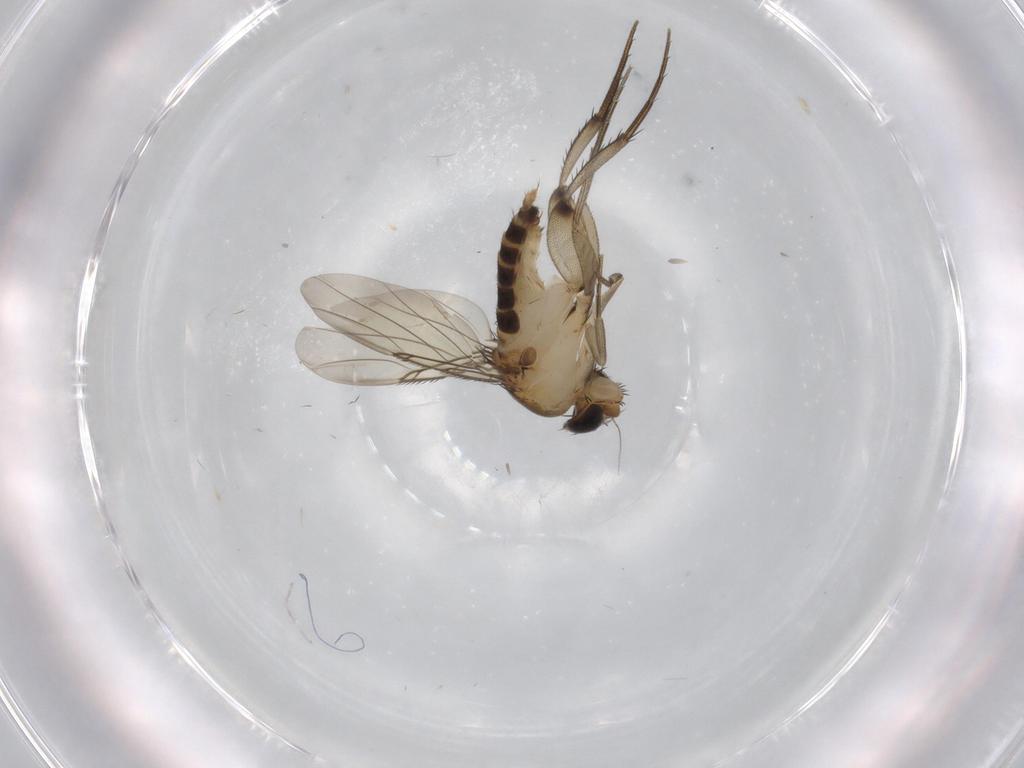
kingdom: Animalia
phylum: Arthropoda
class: Insecta
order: Diptera
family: Phoridae
